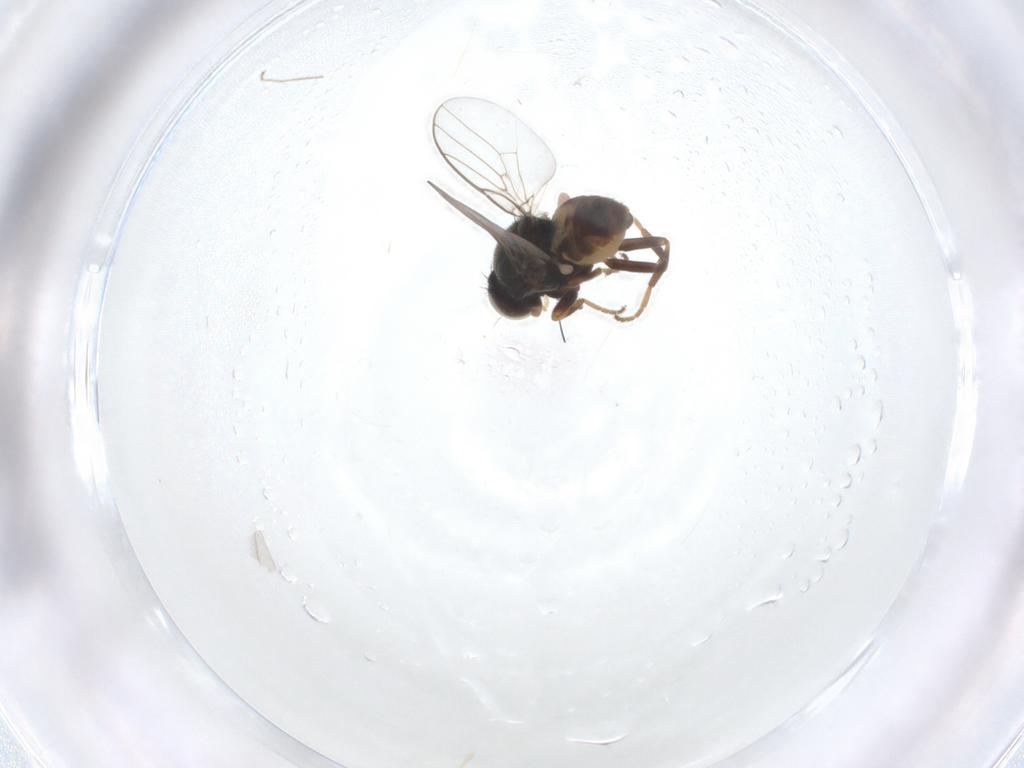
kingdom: Animalia
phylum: Arthropoda
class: Insecta
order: Diptera
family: Chloropidae
